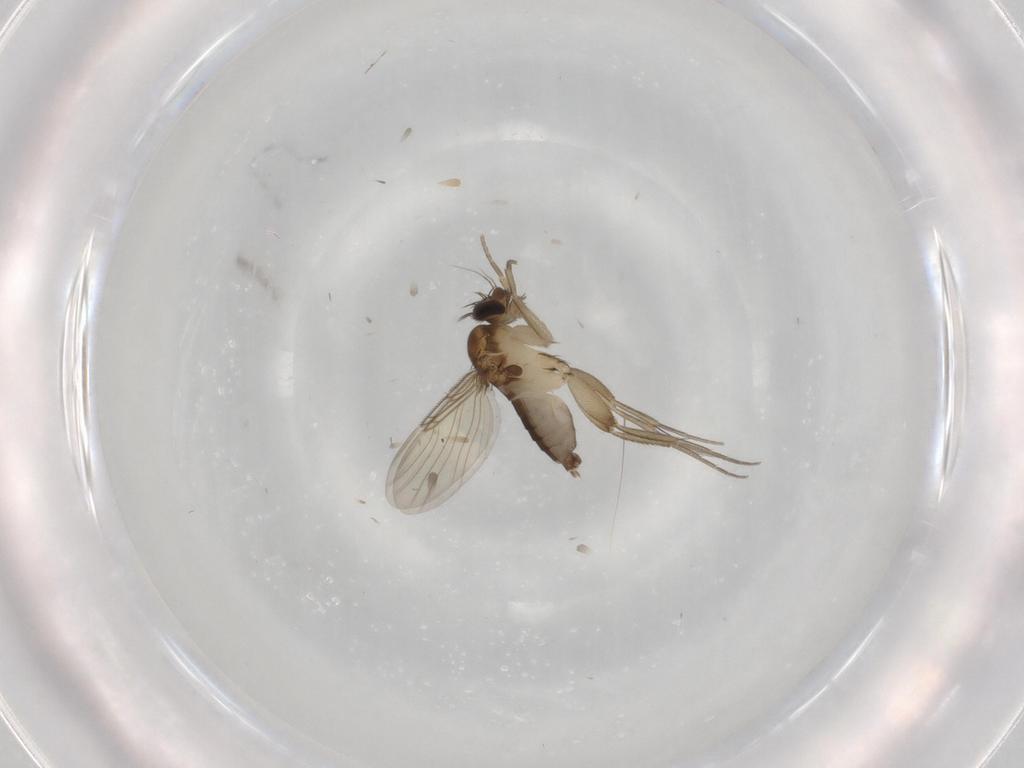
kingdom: Animalia
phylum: Arthropoda
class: Insecta
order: Diptera
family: Phoridae
